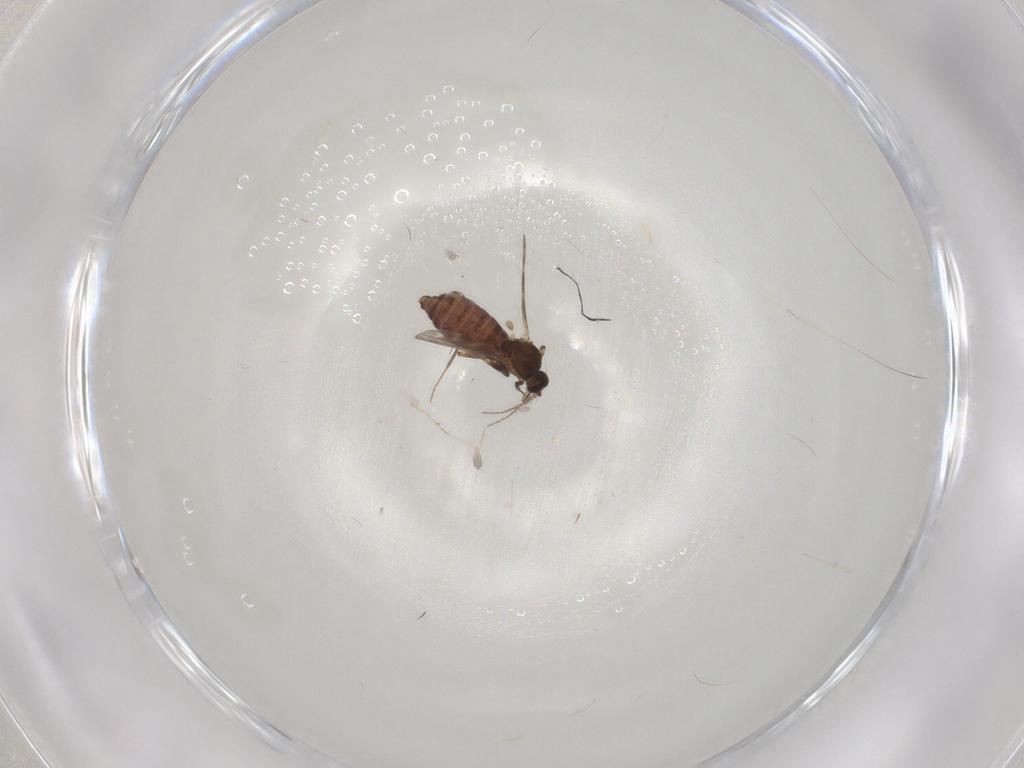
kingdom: Animalia
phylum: Arthropoda
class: Insecta
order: Diptera
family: Ceratopogonidae
